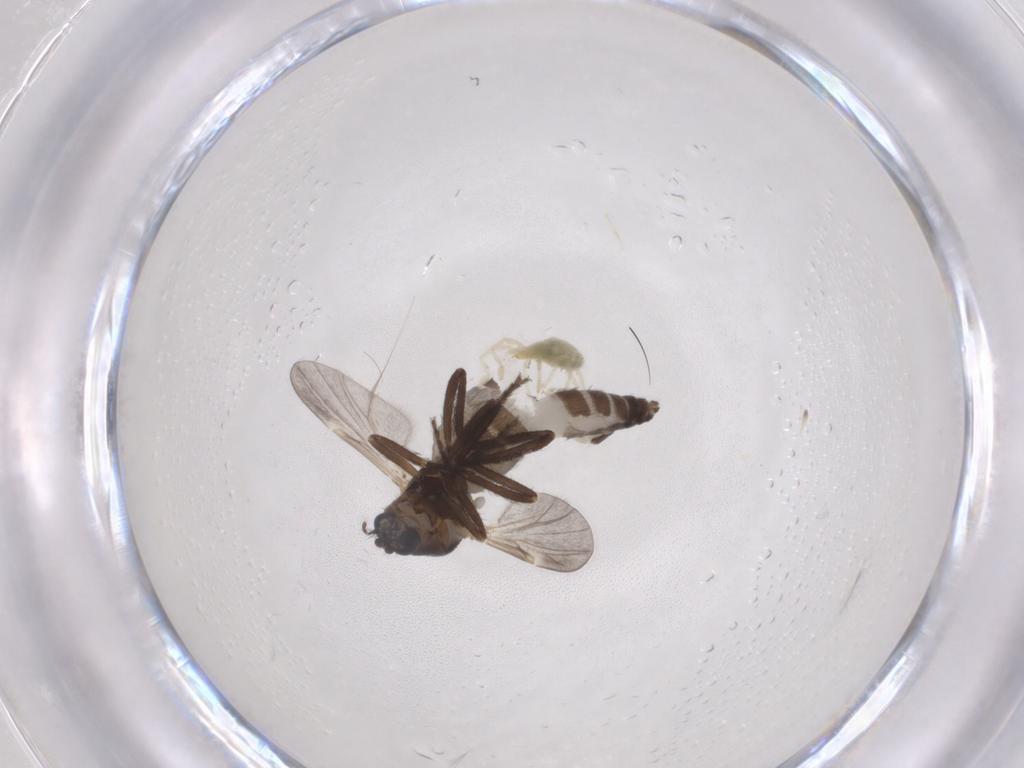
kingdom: Animalia
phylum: Arthropoda
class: Insecta
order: Diptera
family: Ceratopogonidae
